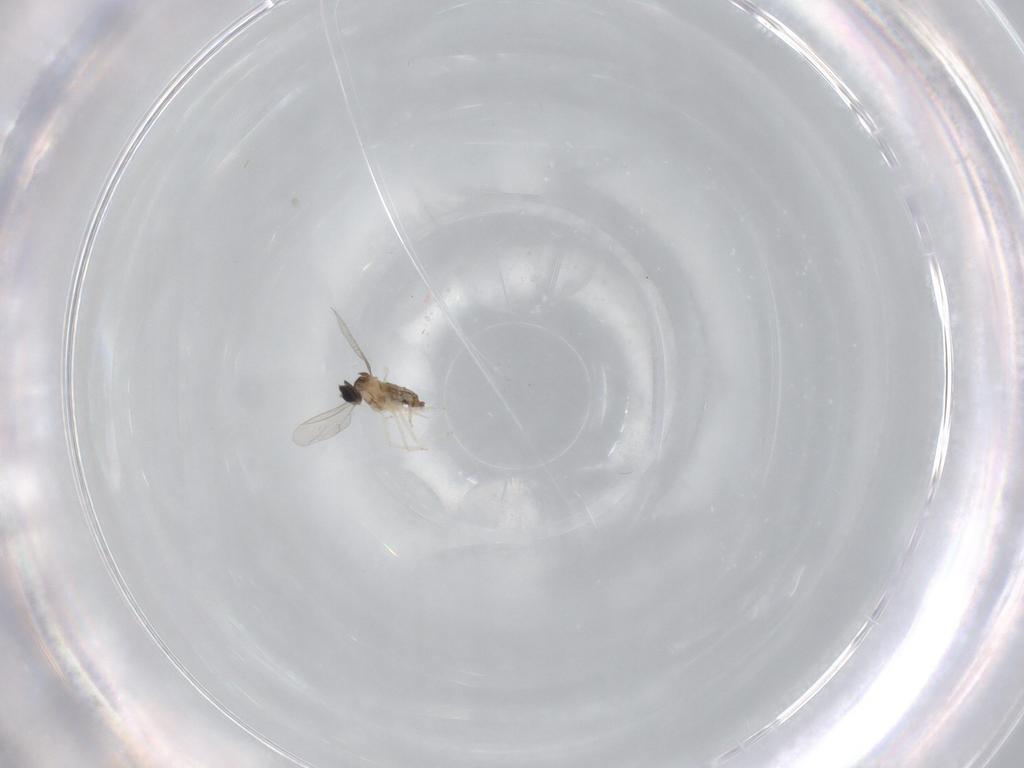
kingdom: Animalia
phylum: Arthropoda
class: Insecta
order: Diptera
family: Cecidomyiidae
